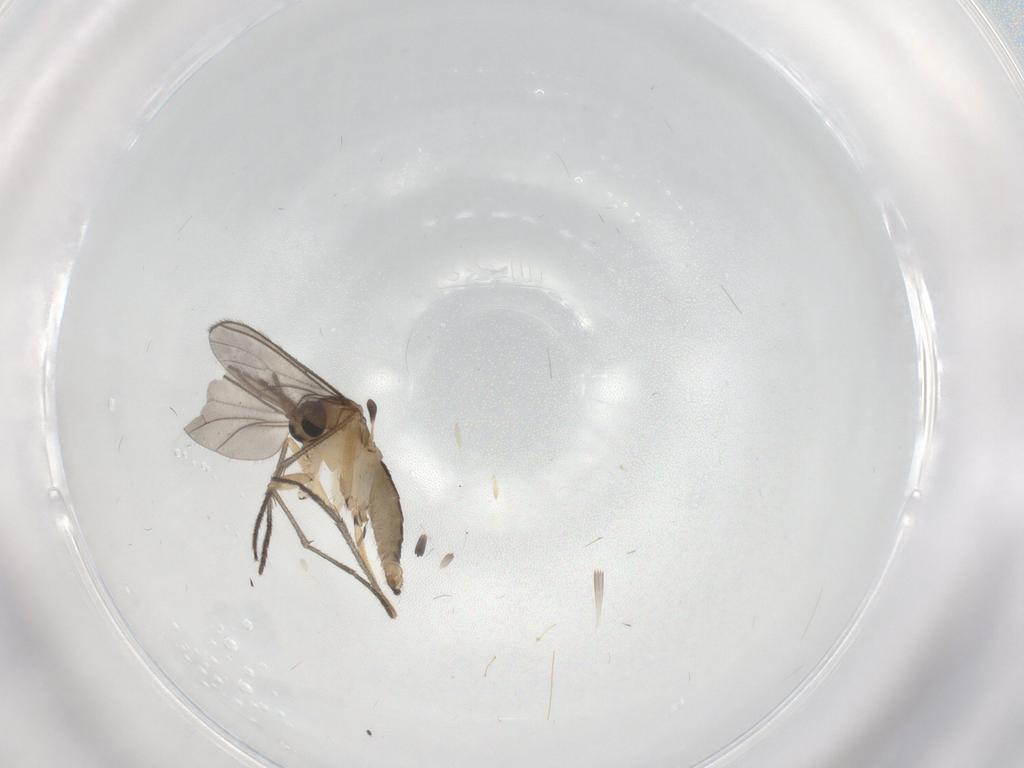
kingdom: Animalia
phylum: Arthropoda
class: Insecta
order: Diptera
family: Sciaridae
